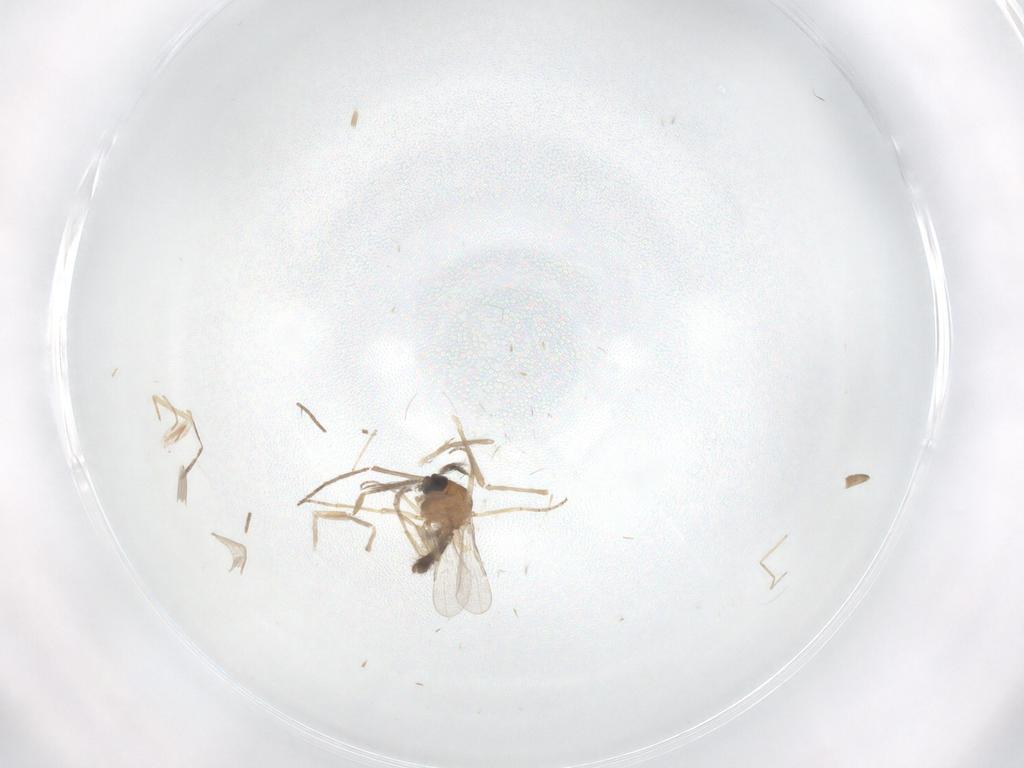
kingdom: Animalia
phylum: Arthropoda
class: Insecta
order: Diptera
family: Chironomidae
